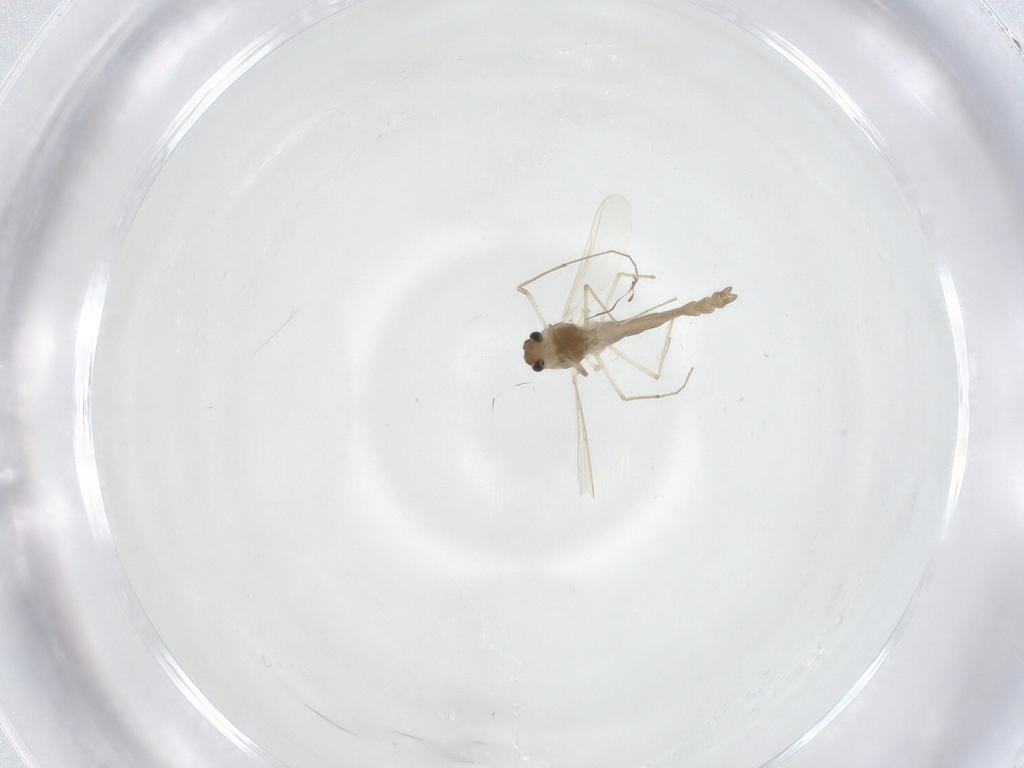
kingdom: Animalia
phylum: Arthropoda
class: Insecta
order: Diptera
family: Chironomidae
